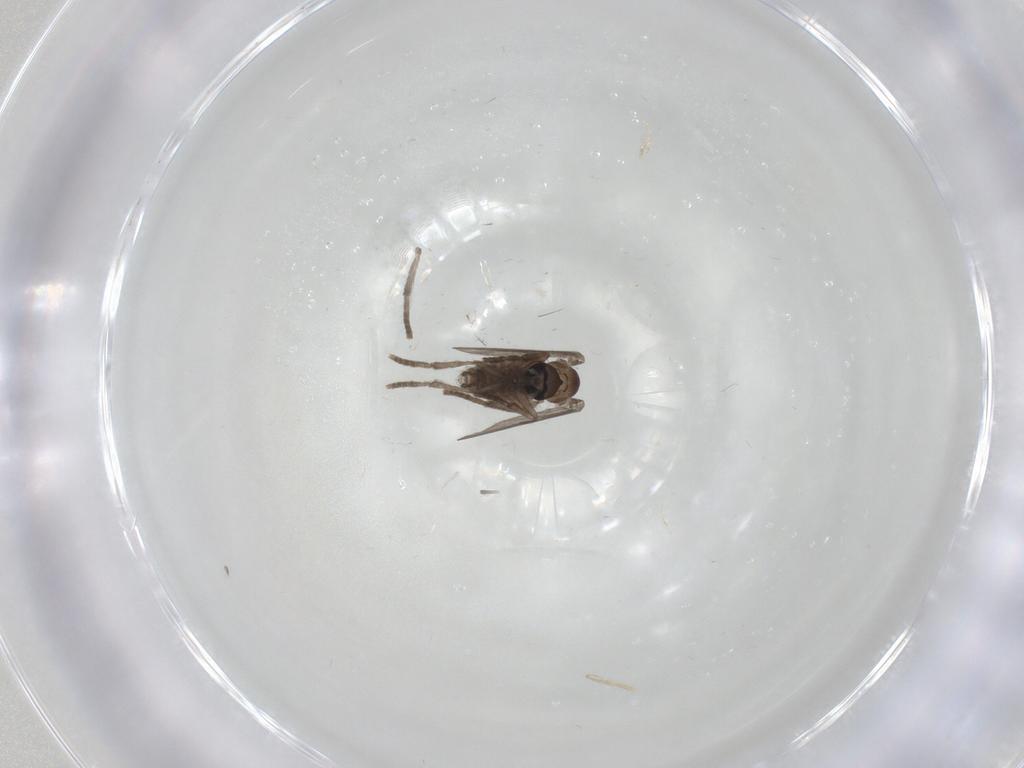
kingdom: Animalia
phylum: Arthropoda
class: Insecta
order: Diptera
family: Psychodidae
